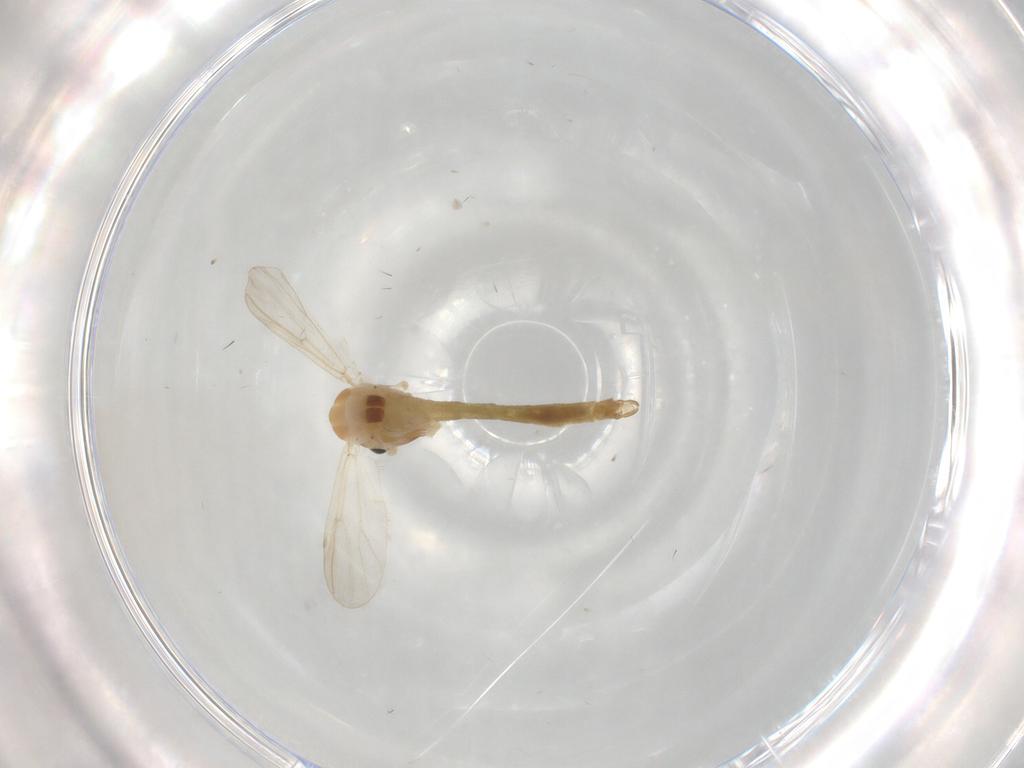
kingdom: Animalia
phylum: Arthropoda
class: Insecta
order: Diptera
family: Chironomidae
